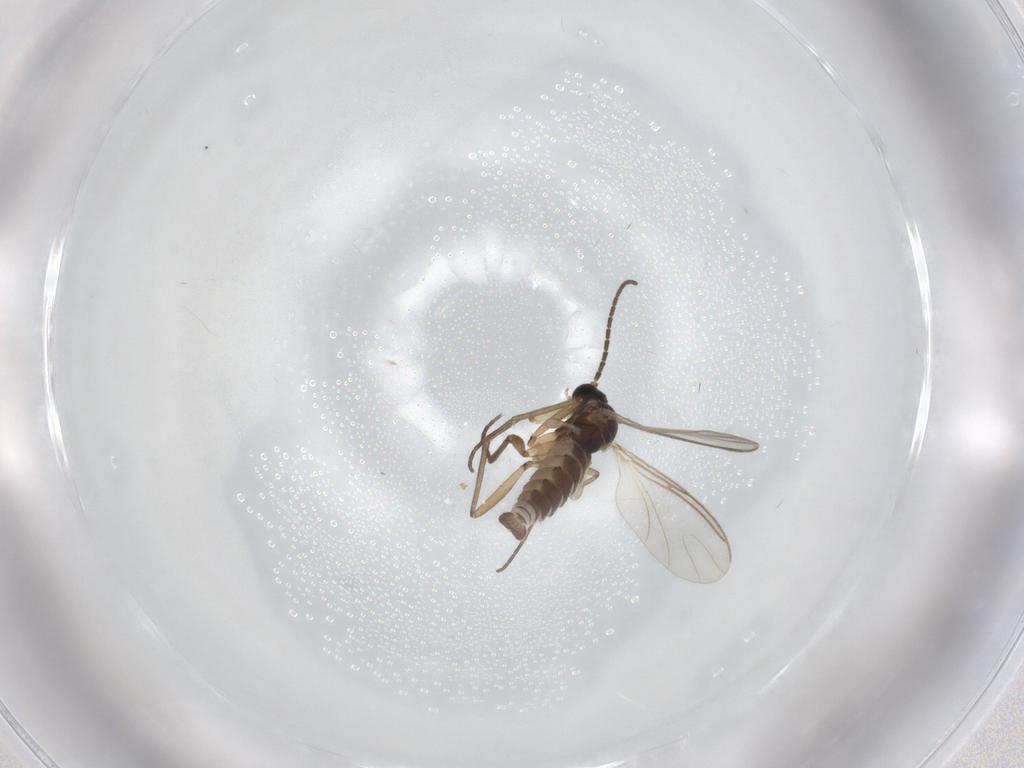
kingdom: Animalia
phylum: Arthropoda
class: Insecta
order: Diptera
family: Sciaridae
